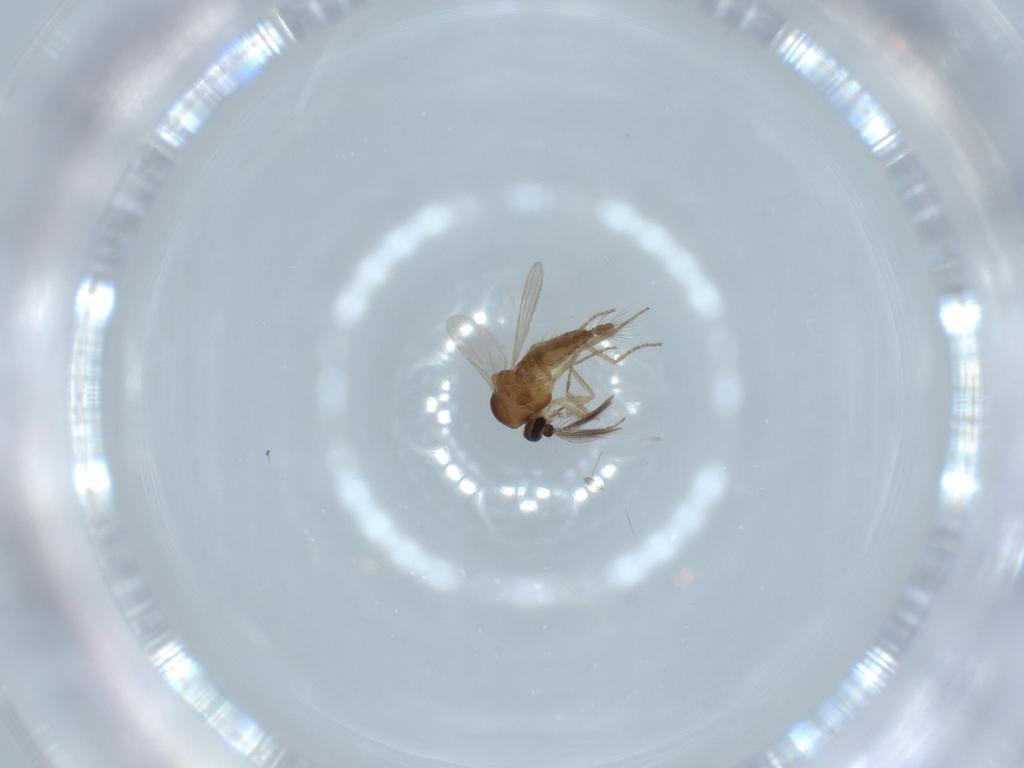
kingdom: Animalia
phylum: Arthropoda
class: Insecta
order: Diptera
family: Ceratopogonidae
